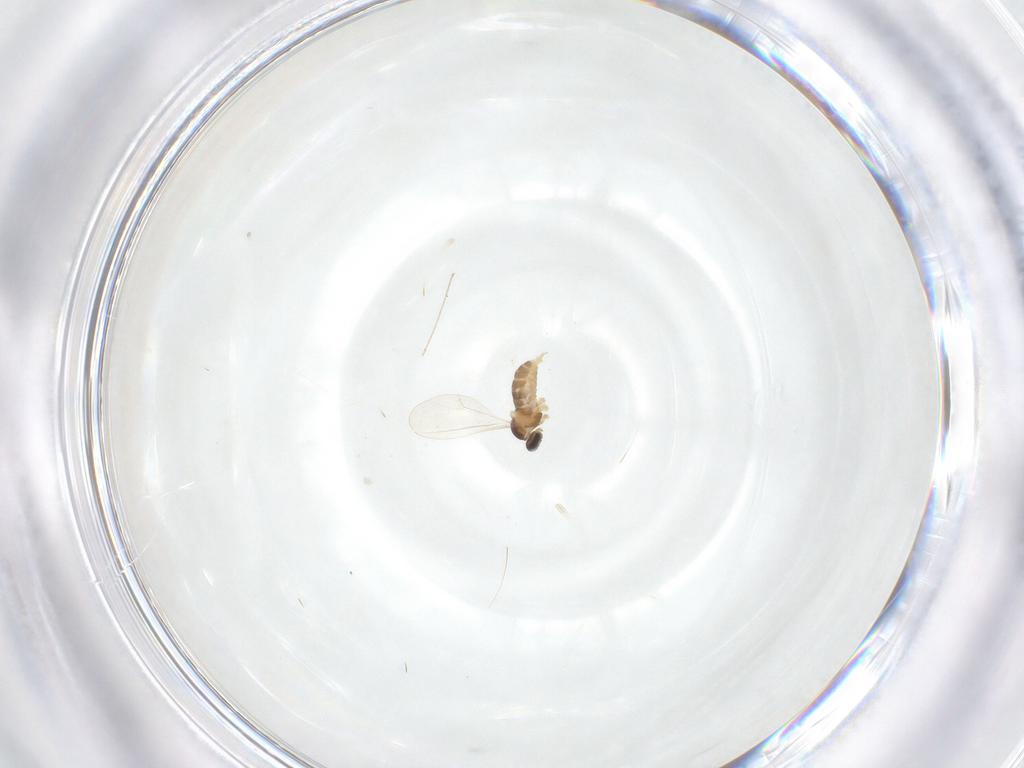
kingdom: Animalia
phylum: Arthropoda
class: Insecta
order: Diptera
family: Cecidomyiidae
